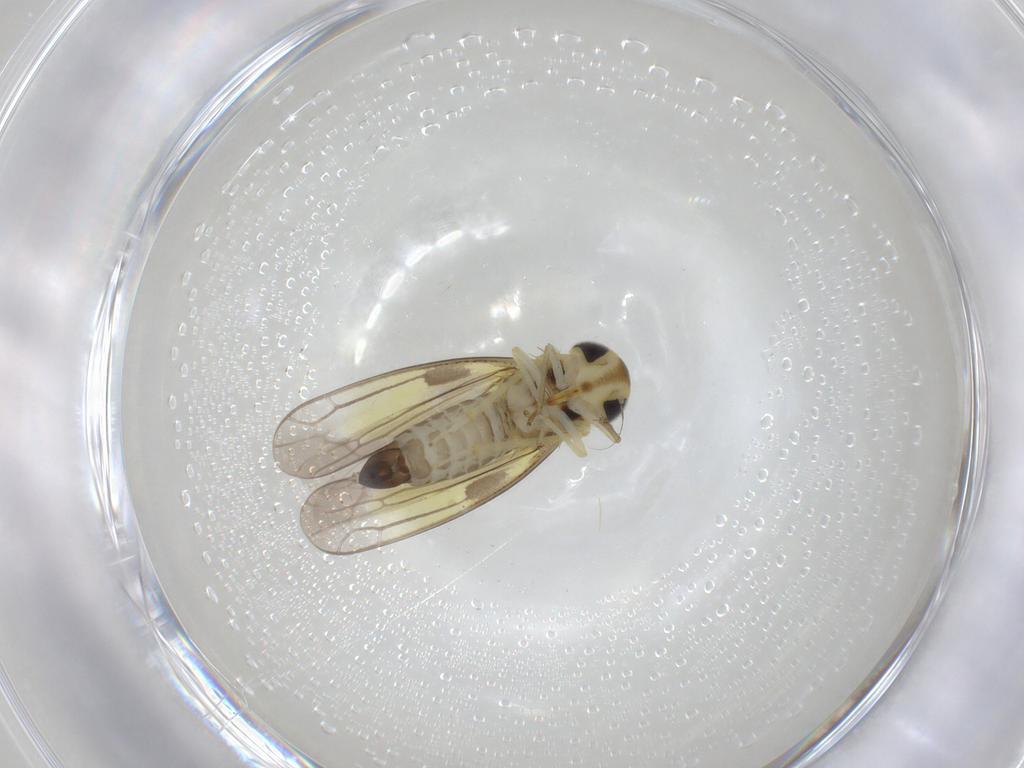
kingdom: Animalia
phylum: Arthropoda
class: Insecta
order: Hemiptera
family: Cicadellidae
